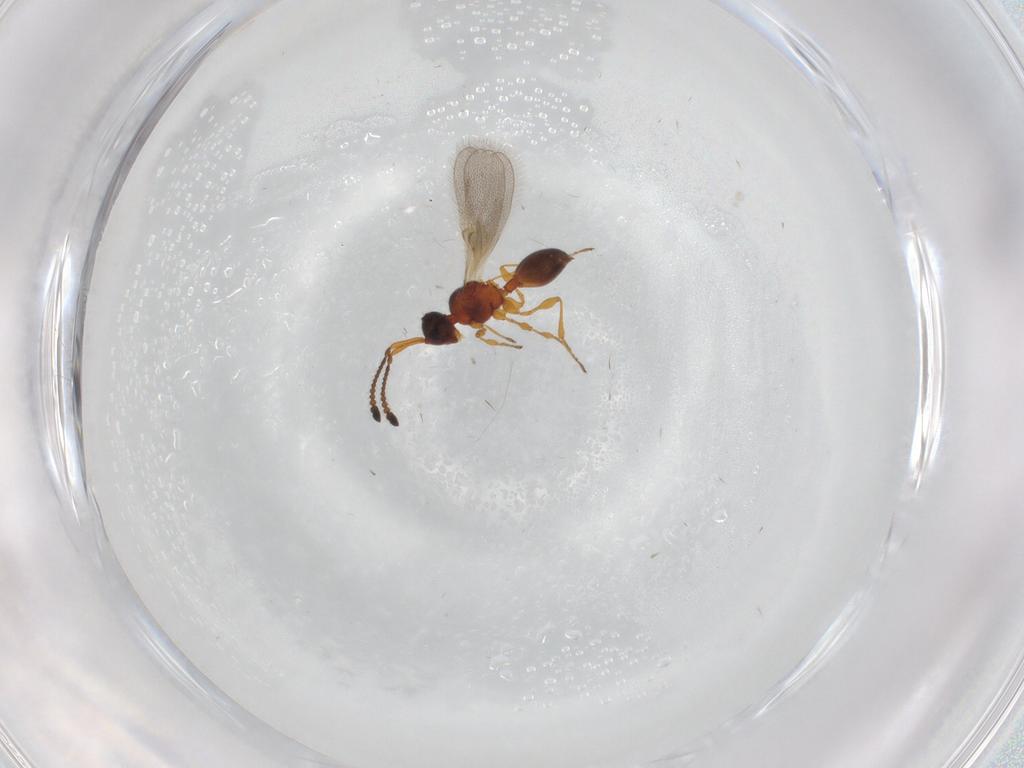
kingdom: Animalia
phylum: Arthropoda
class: Insecta
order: Hymenoptera
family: Diapriidae
